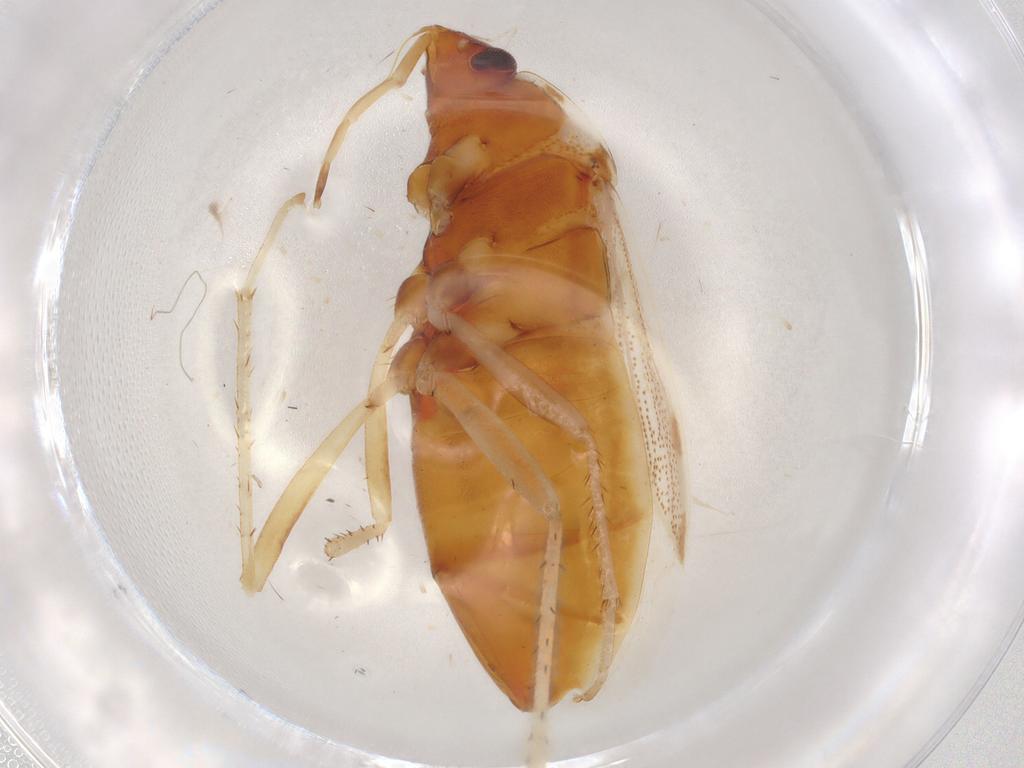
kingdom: Animalia
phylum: Arthropoda
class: Insecta
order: Hemiptera
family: Rhyparochromidae
